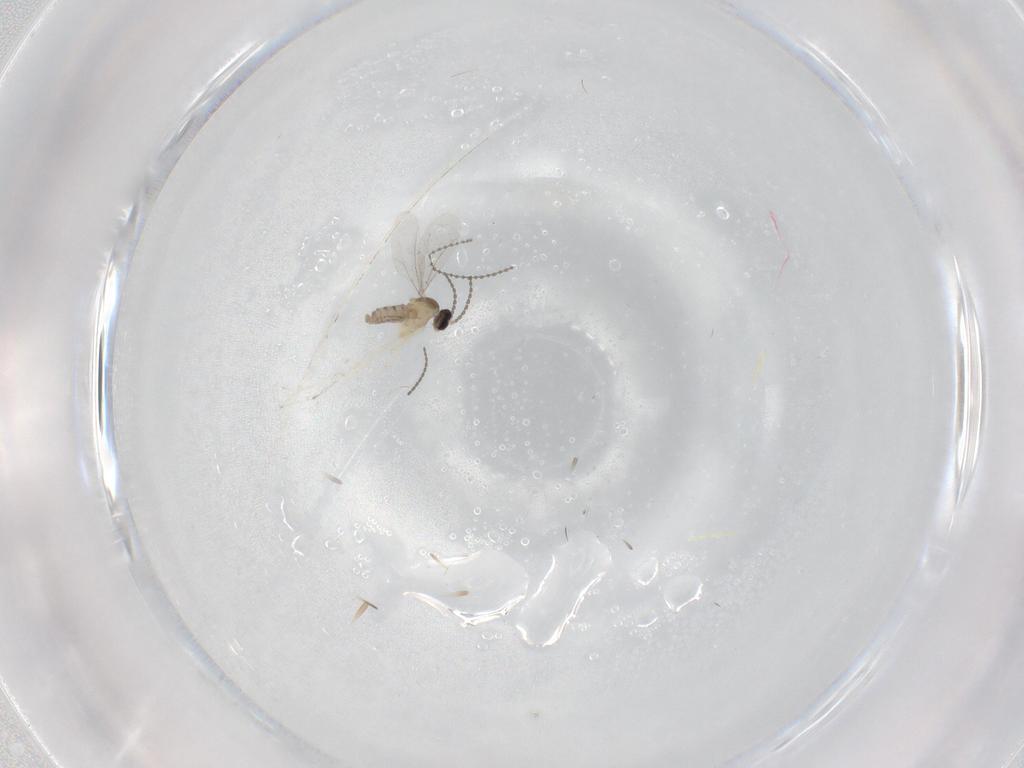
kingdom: Animalia
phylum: Arthropoda
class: Insecta
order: Diptera
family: Cecidomyiidae
